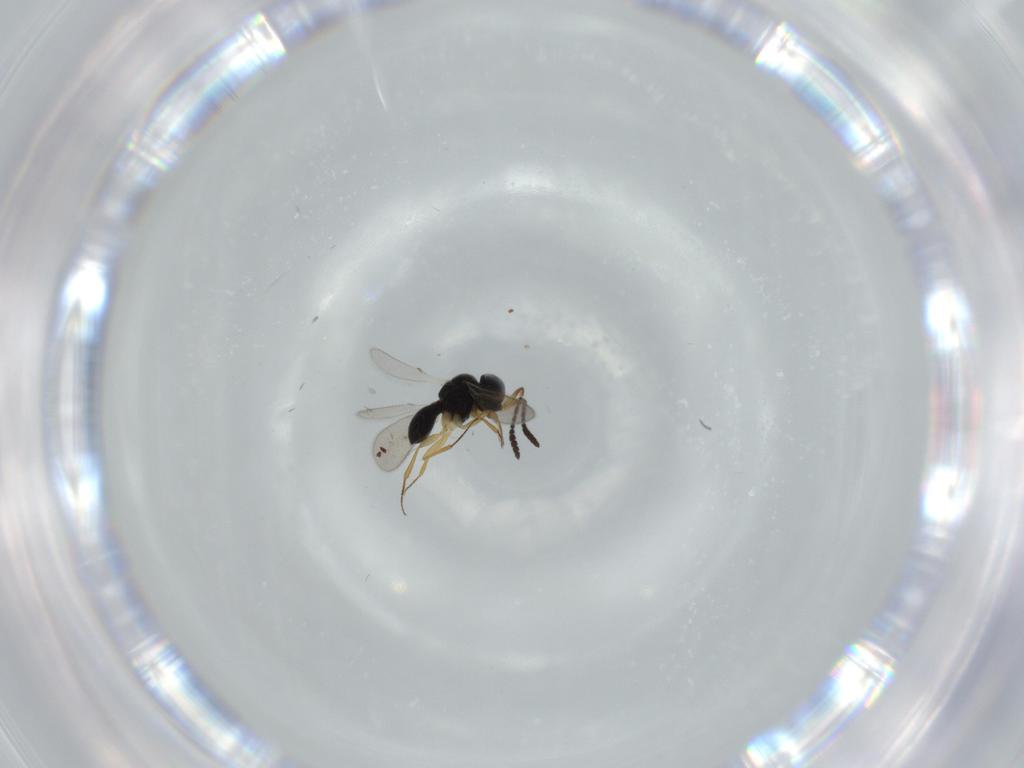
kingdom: Animalia
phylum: Arthropoda
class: Insecta
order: Hymenoptera
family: Scelionidae
